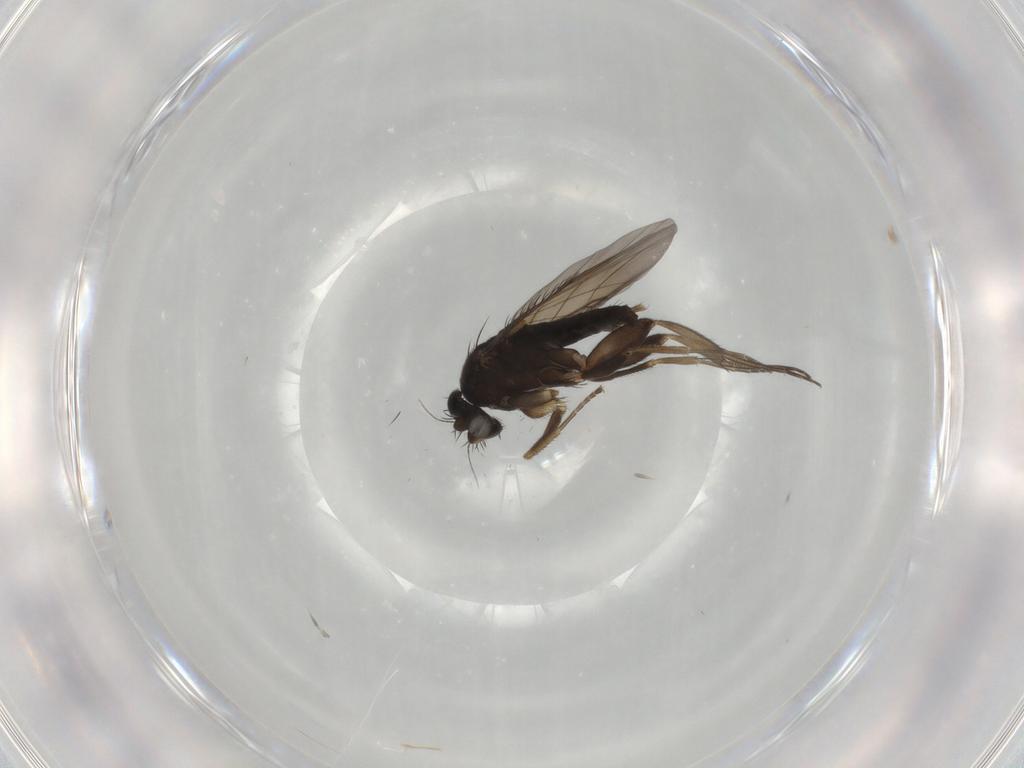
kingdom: Animalia
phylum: Arthropoda
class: Insecta
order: Diptera
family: Phoridae
